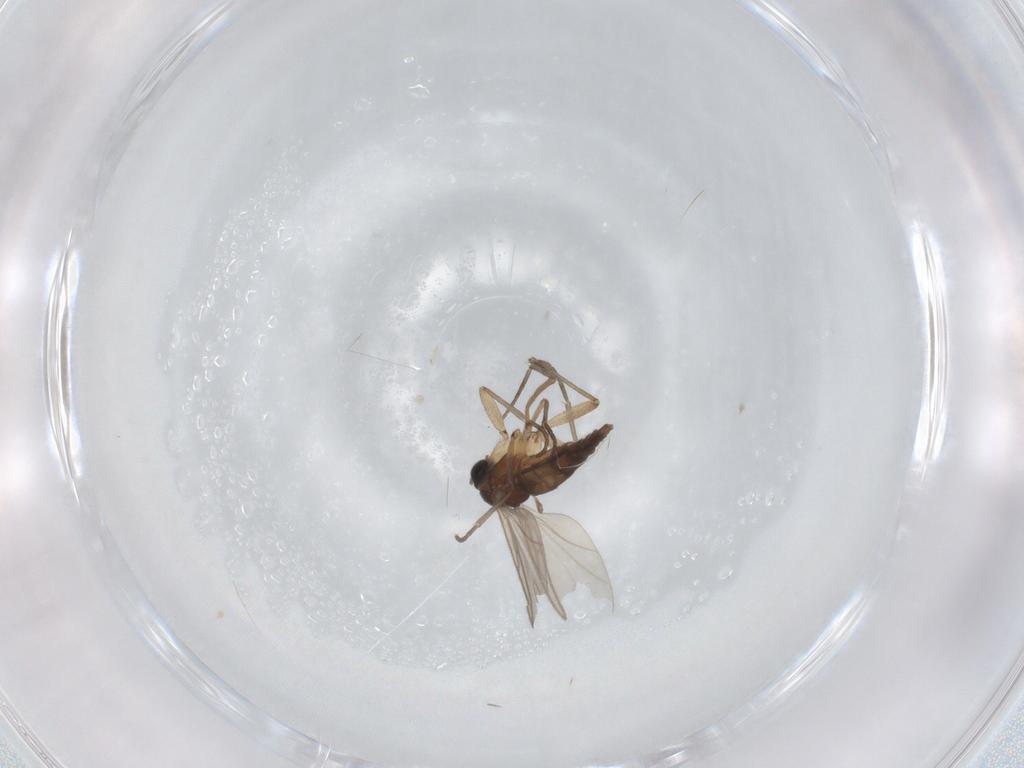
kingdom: Animalia
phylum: Arthropoda
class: Insecta
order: Diptera
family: Sciaridae
